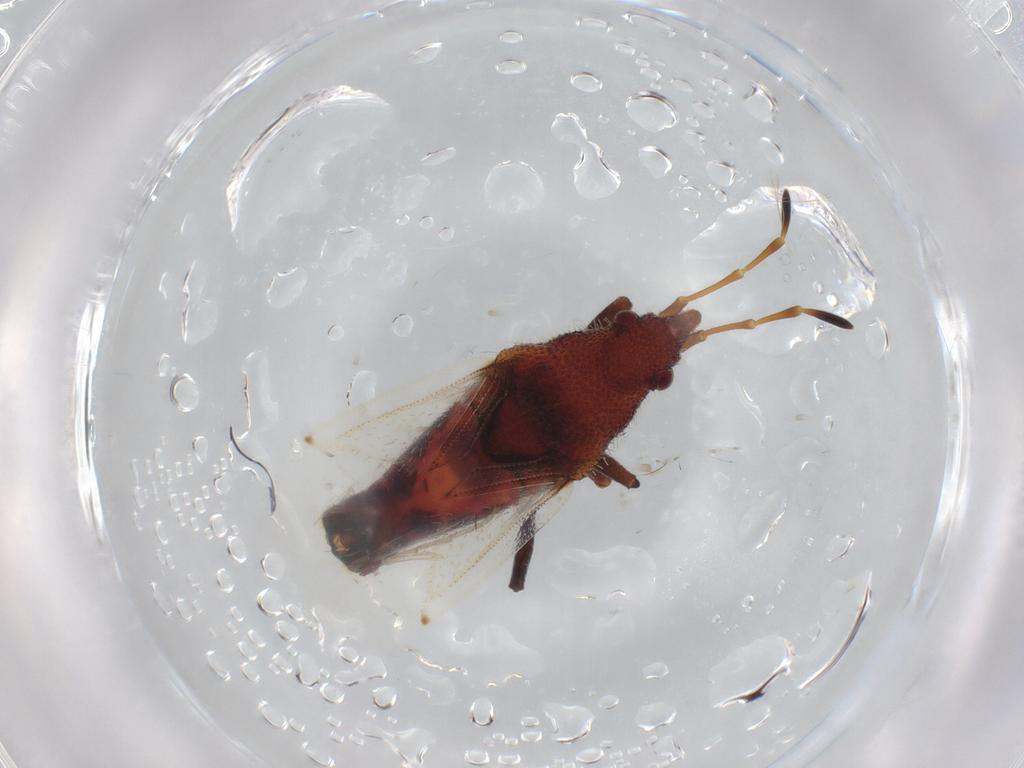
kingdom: Animalia
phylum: Arthropoda
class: Insecta
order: Hemiptera
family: Oxycarenidae
